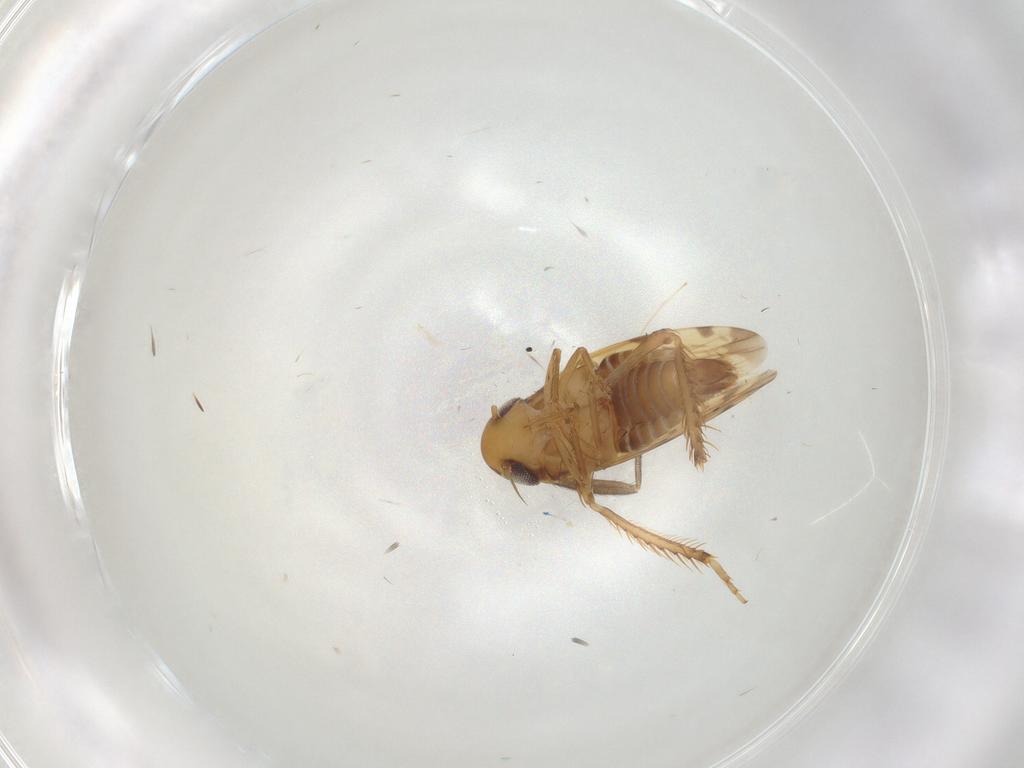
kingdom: Animalia
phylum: Arthropoda
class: Insecta
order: Hemiptera
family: Cicadellidae
